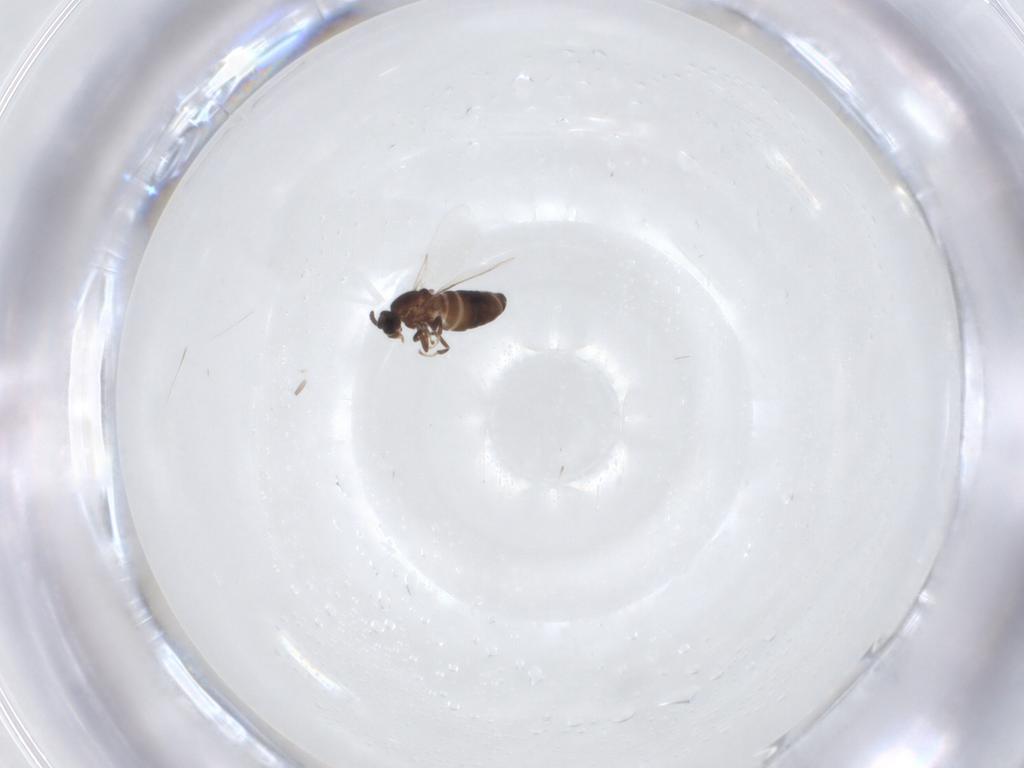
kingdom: Animalia
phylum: Arthropoda
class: Insecta
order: Diptera
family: Scatopsidae
